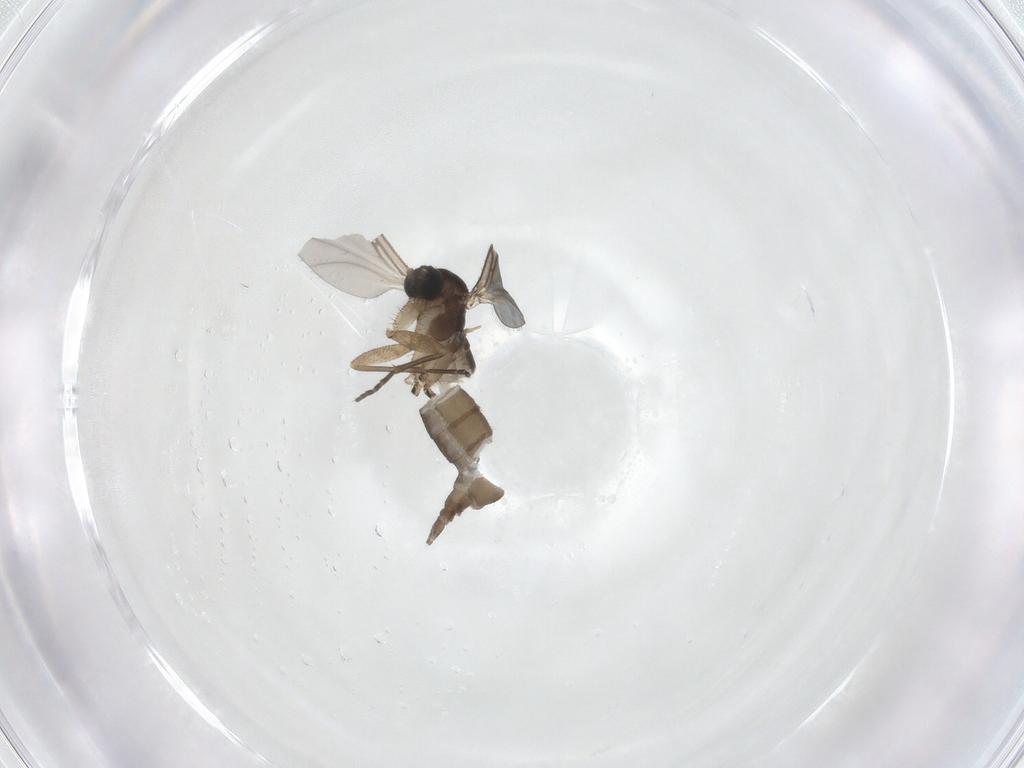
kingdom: Animalia
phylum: Arthropoda
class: Insecta
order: Diptera
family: Sciaridae
